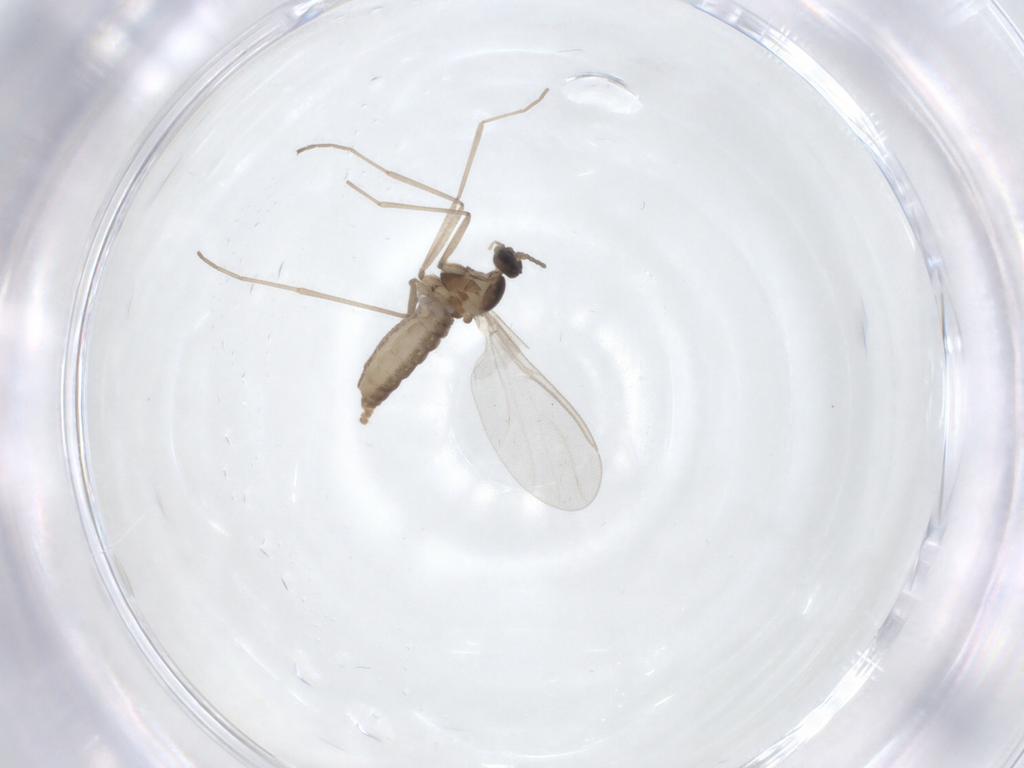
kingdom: Animalia
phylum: Arthropoda
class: Insecta
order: Diptera
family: Cecidomyiidae
